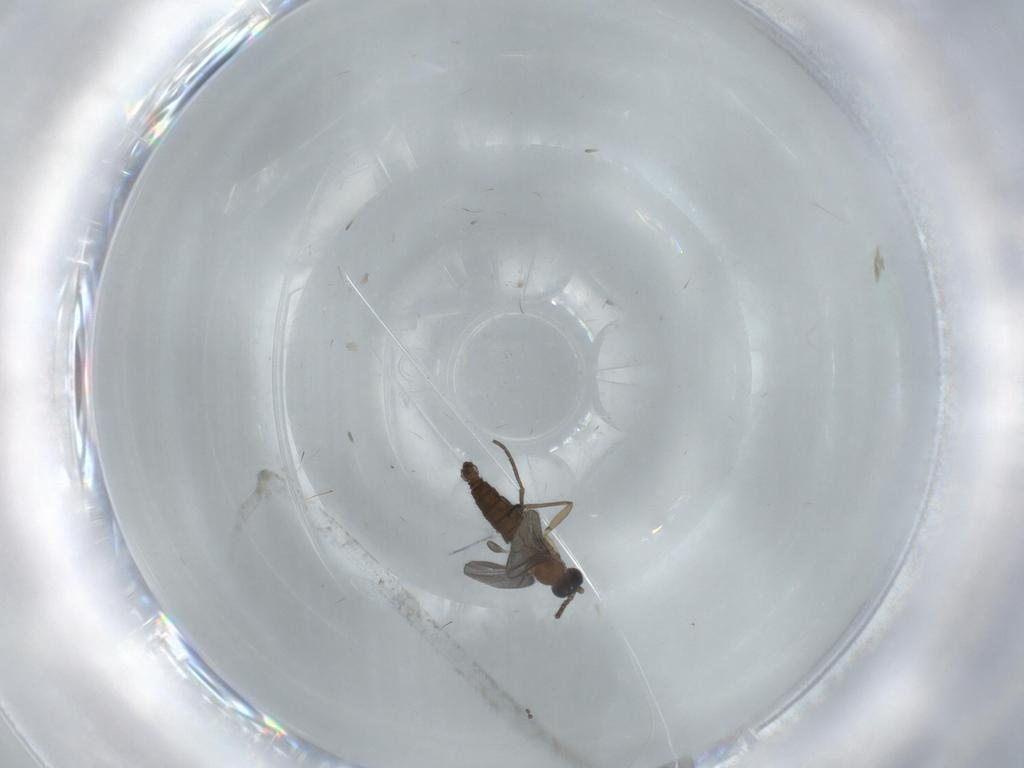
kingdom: Animalia
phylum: Arthropoda
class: Insecta
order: Diptera
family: Sciaridae
